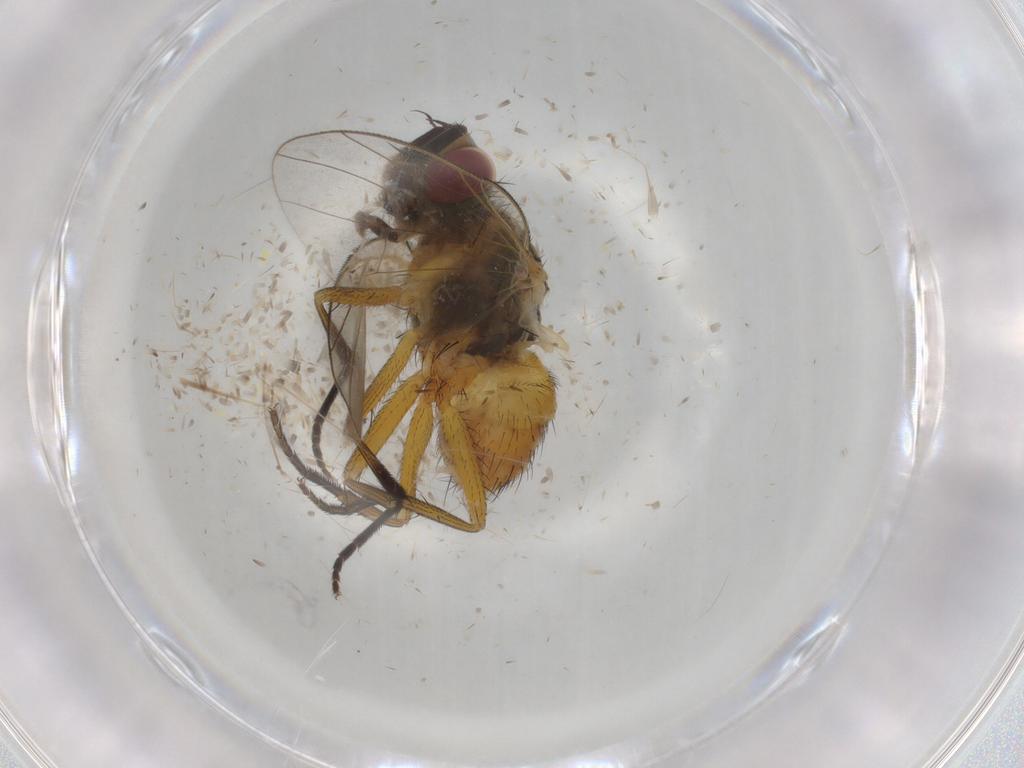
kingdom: Animalia
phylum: Arthropoda
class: Insecta
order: Diptera
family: Muscidae
